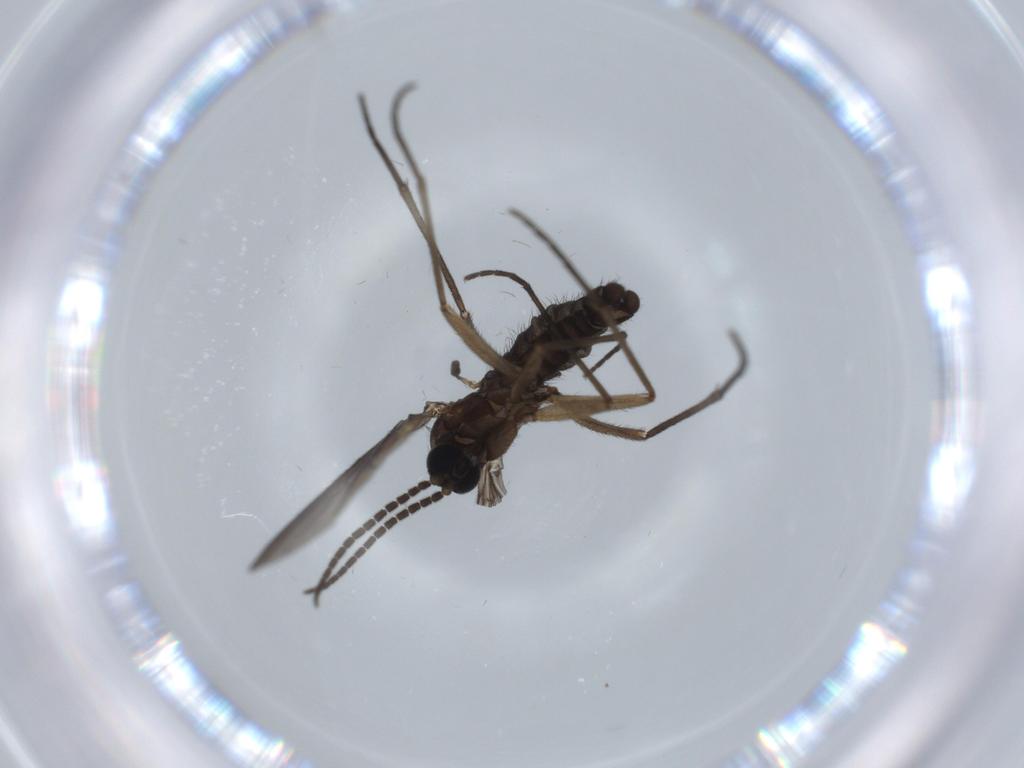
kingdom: Animalia
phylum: Arthropoda
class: Insecta
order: Diptera
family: Sciaridae
